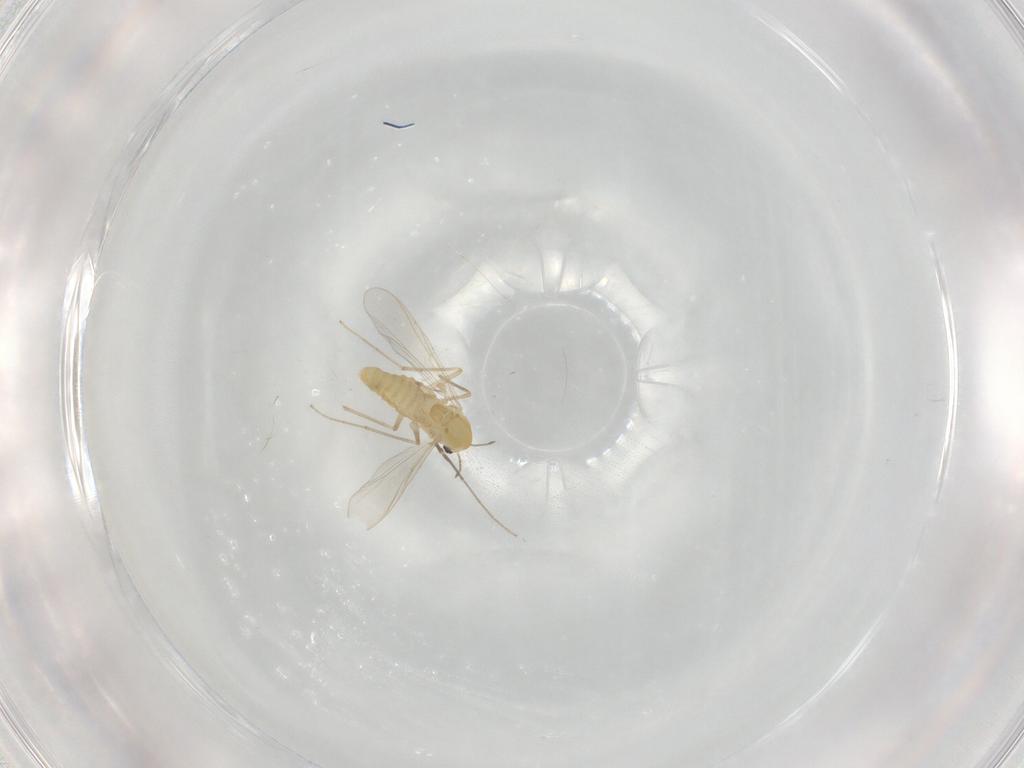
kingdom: Animalia
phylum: Arthropoda
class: Insecta
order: Diptera
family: Chironomidae
